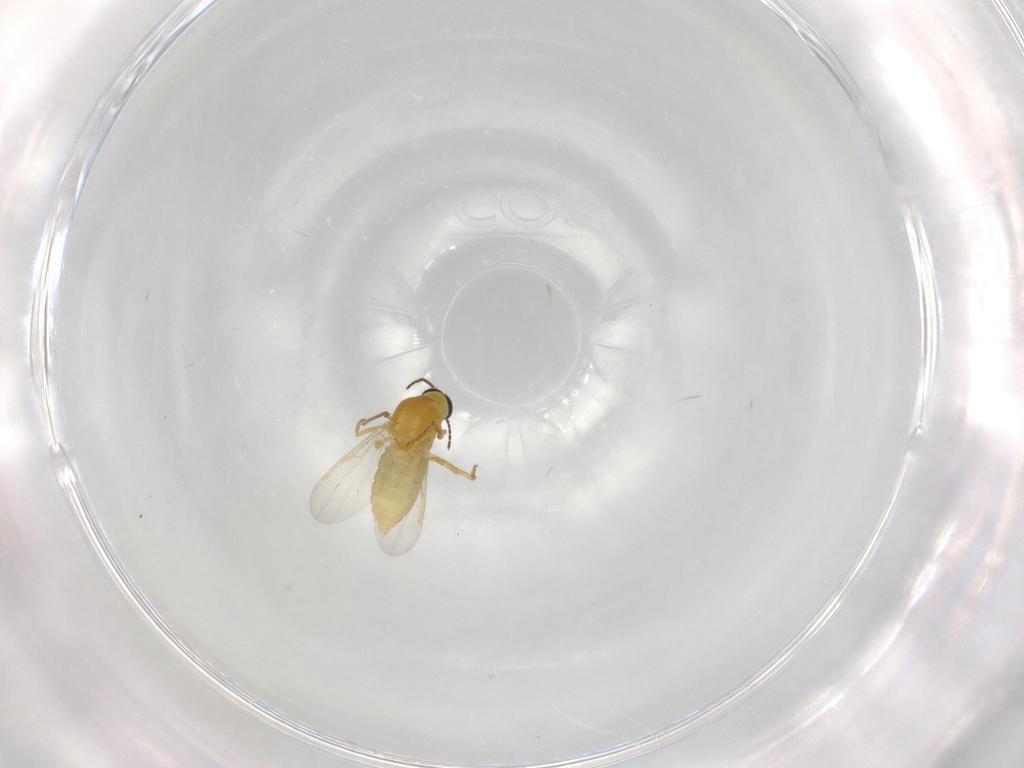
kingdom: Animalia
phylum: Arthropoda
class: Insecta
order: Diptera
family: Ceratopogonidae
